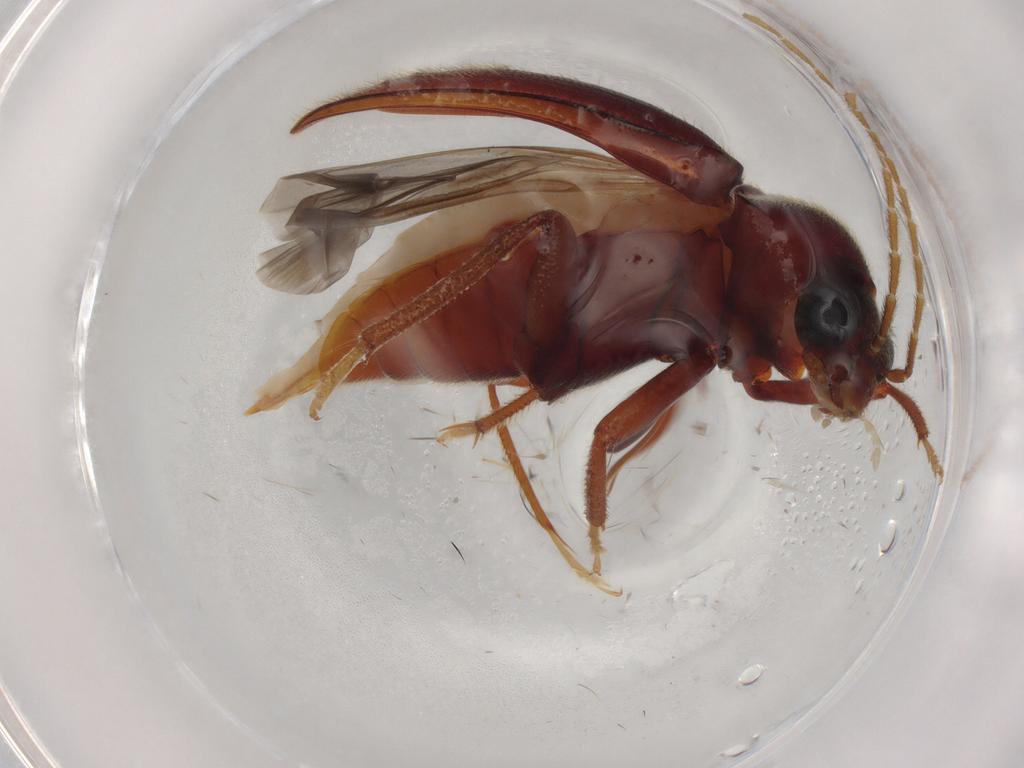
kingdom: Animalia
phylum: Arthropoda
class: Insecta
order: Coleoptera
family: Ptilodactylidae
